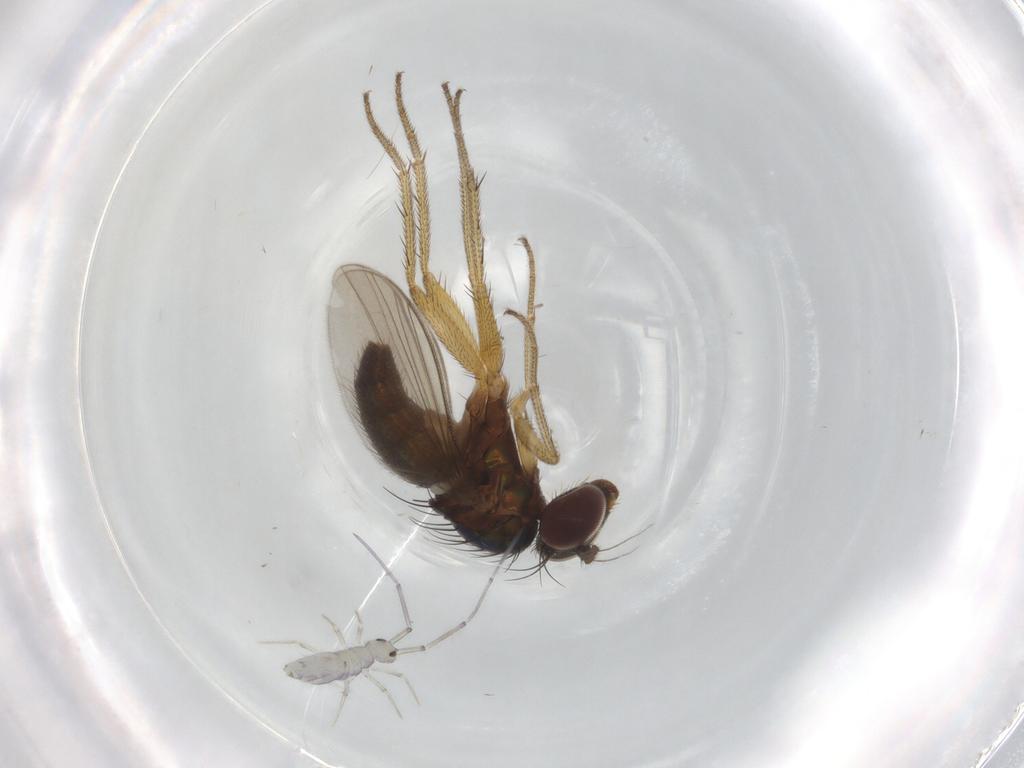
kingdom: Animalia
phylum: Arthropoda
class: Insecta
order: Diptera
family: Dolichopodidae
